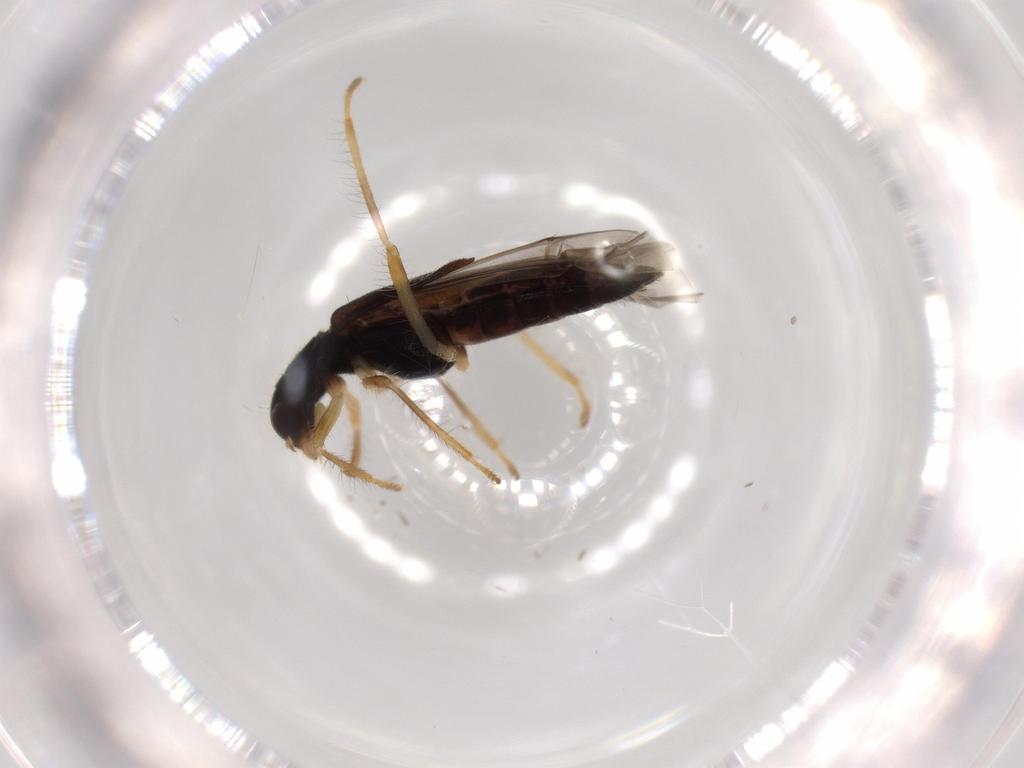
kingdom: Animalia
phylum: Arthropoda
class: Insecta
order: Coleoptera
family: Cleridae
